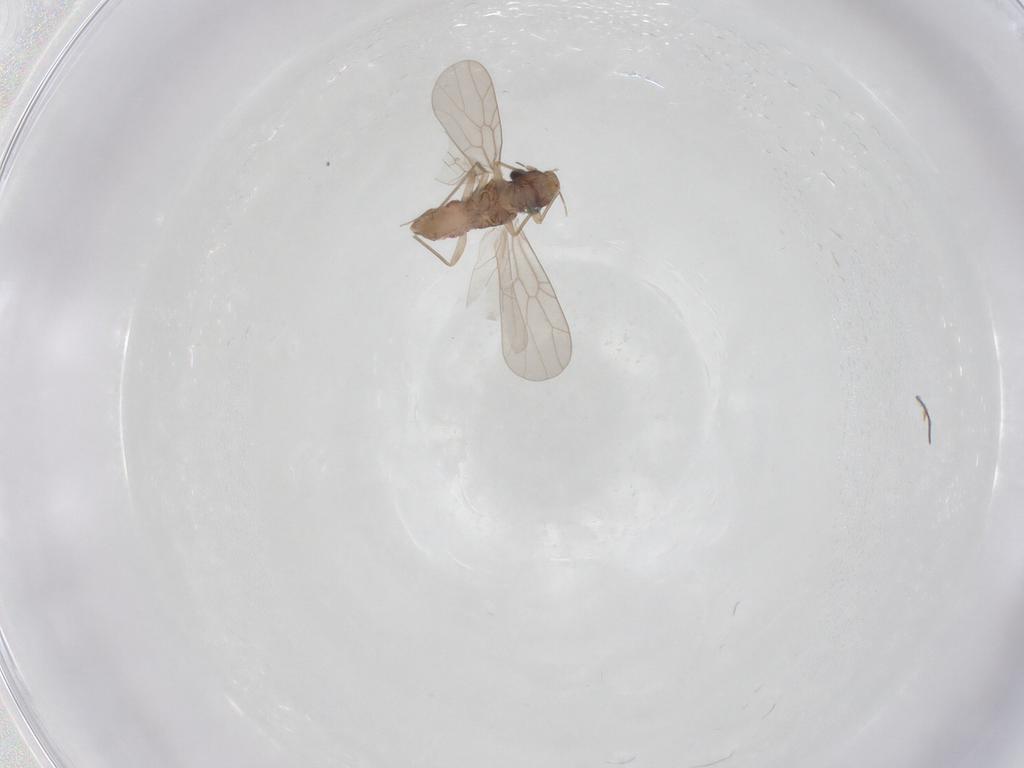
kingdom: Animalia
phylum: Arthropoda
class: Insecta
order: Psocodea
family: Lepidopsocidae
